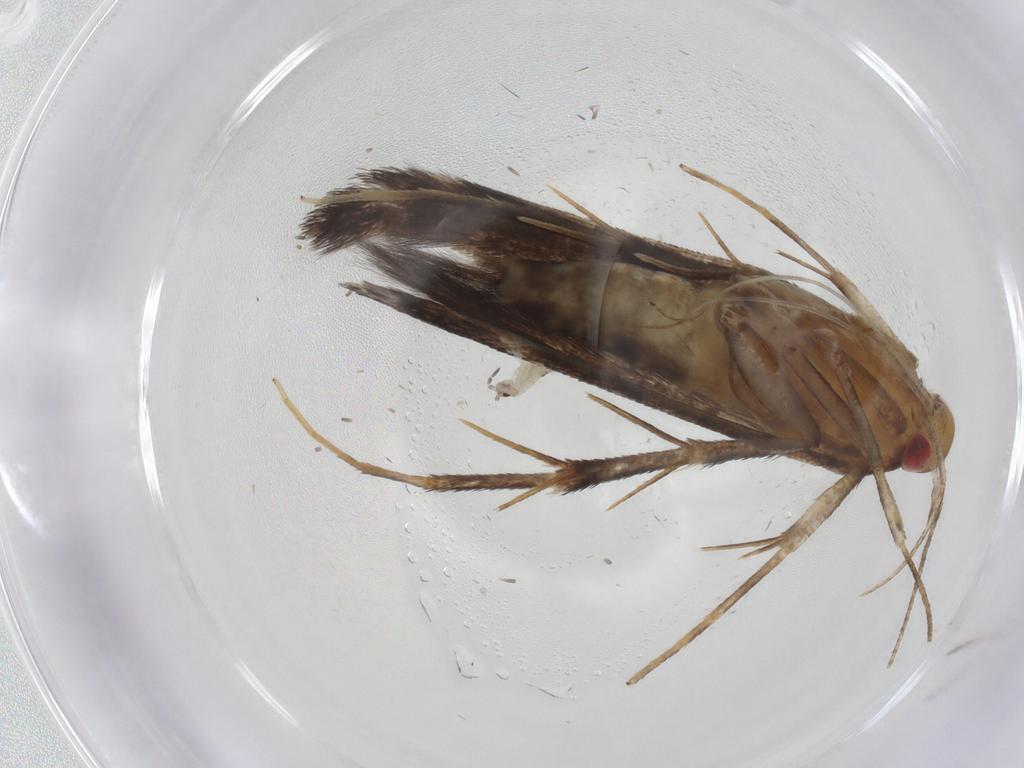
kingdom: Animalia
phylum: Arthropoda
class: Insecta
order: Lepidoptera
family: Cosmopterigidae
